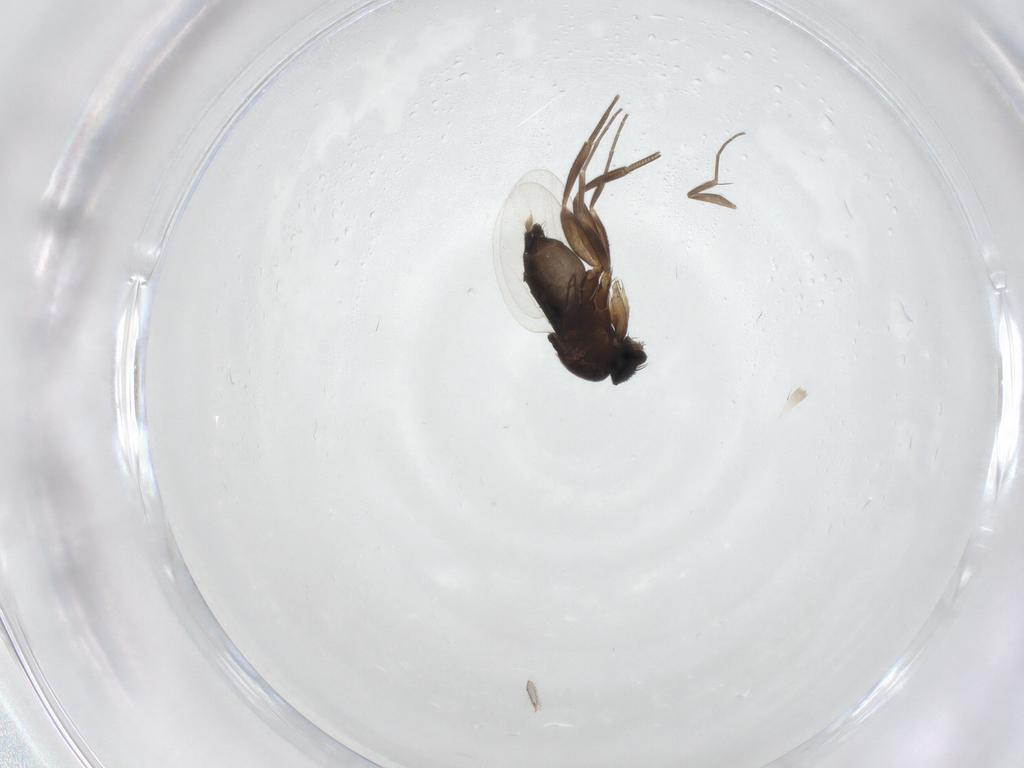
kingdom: Animalia
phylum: Arthropoda
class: Insecta
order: Diptera
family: Phoridae
